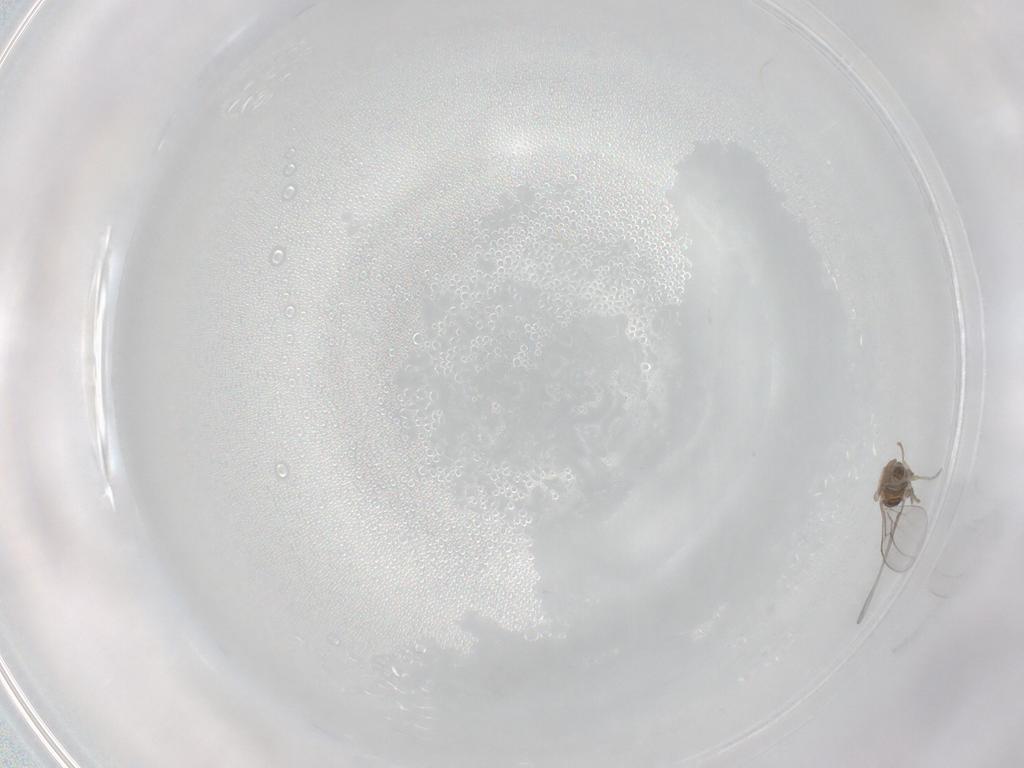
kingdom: Animalia
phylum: Arthropoda
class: Insecta
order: Diptera
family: Cecidomyiidae
